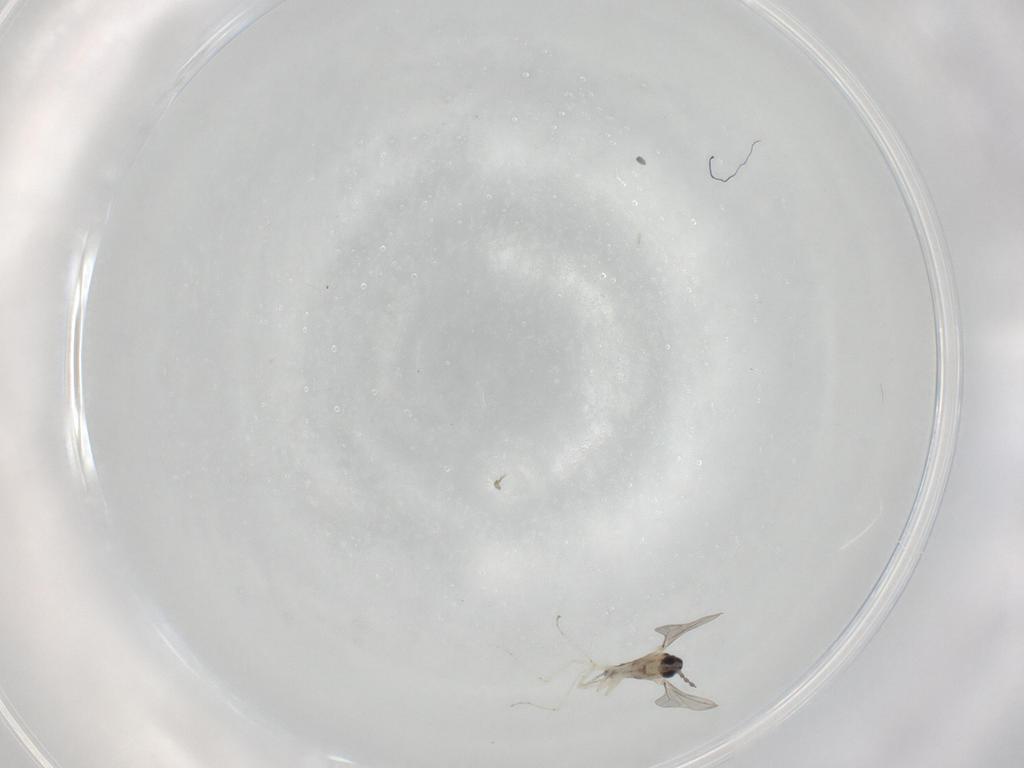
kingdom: Animalia
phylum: Arthropoda
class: Insecta
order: Diptera
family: Cecidomyiidae
